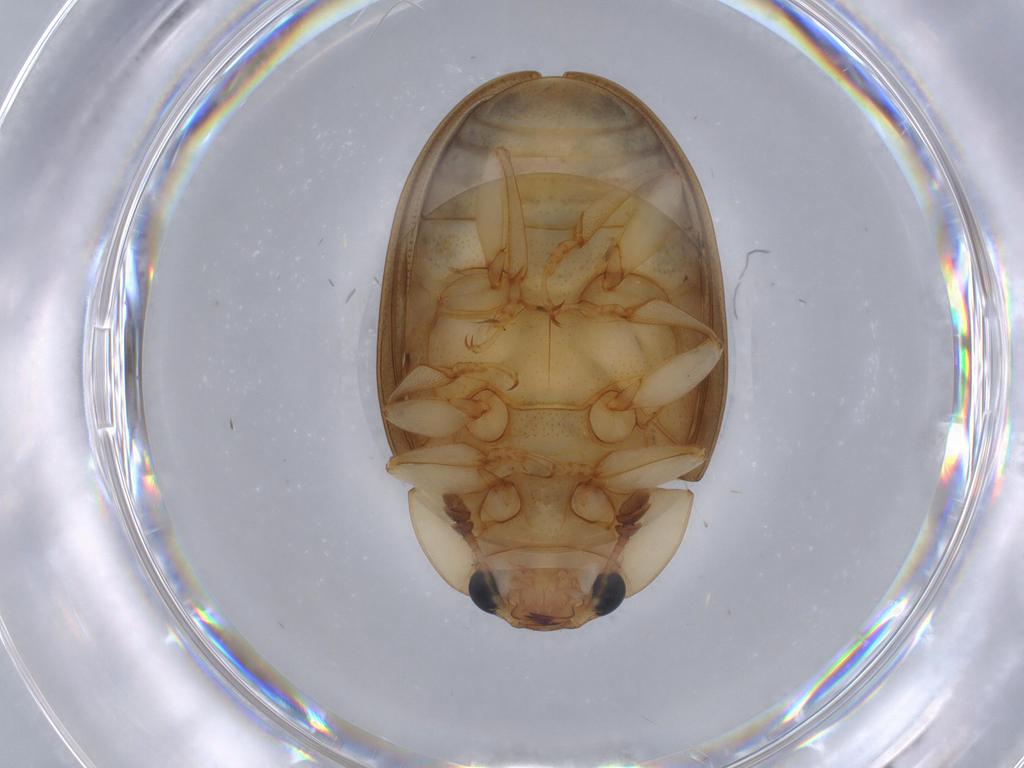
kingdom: Animalia
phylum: Arthropoda
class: Insecta
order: Coleoptera
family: Erotylidae
